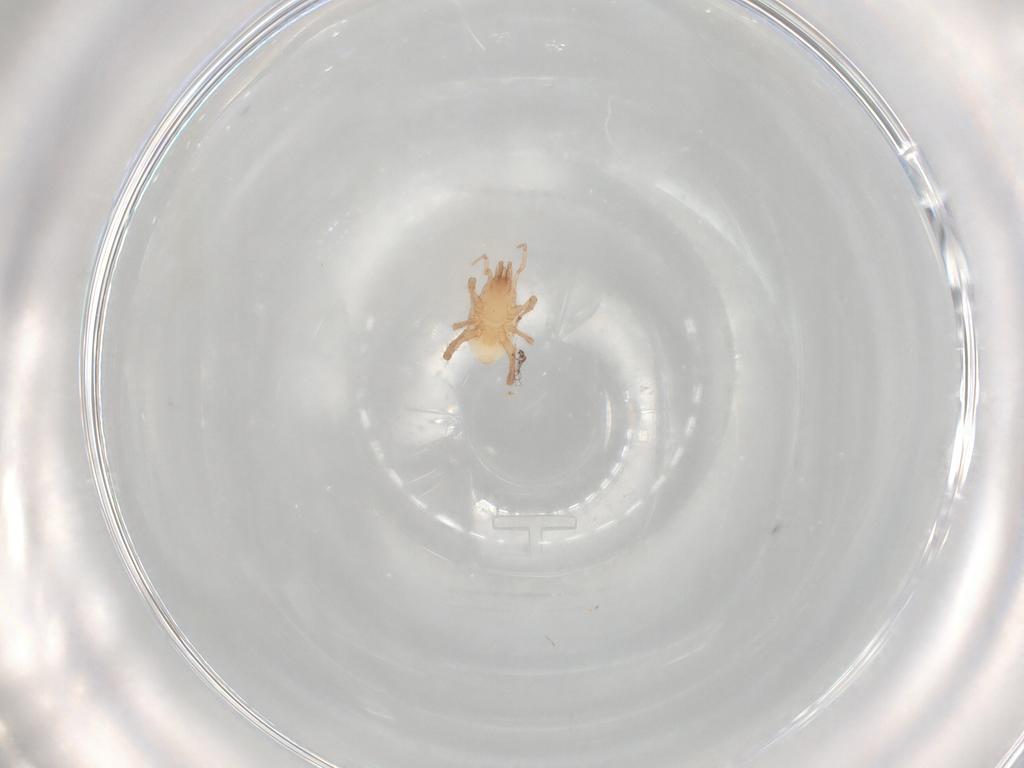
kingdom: Animalia
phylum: Arthropoda
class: Arachnida
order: Mesostigmata
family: Arctacaridae
